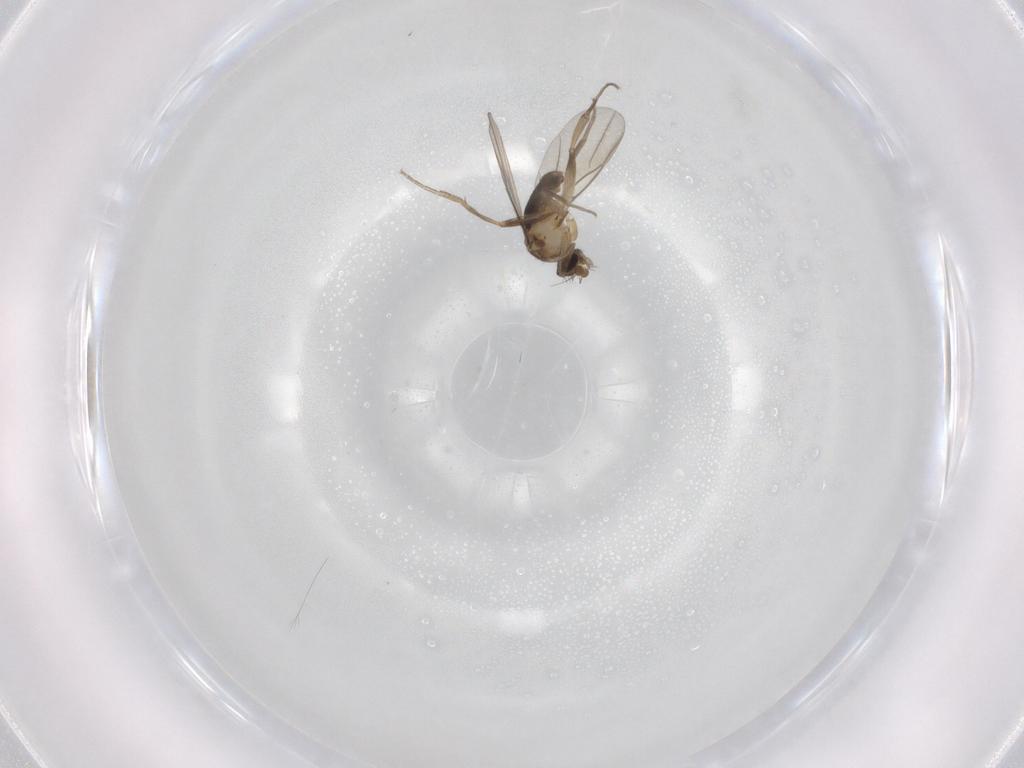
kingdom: Animalia
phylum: Arthropoda
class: Insecta
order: Diptera
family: Phoridae
